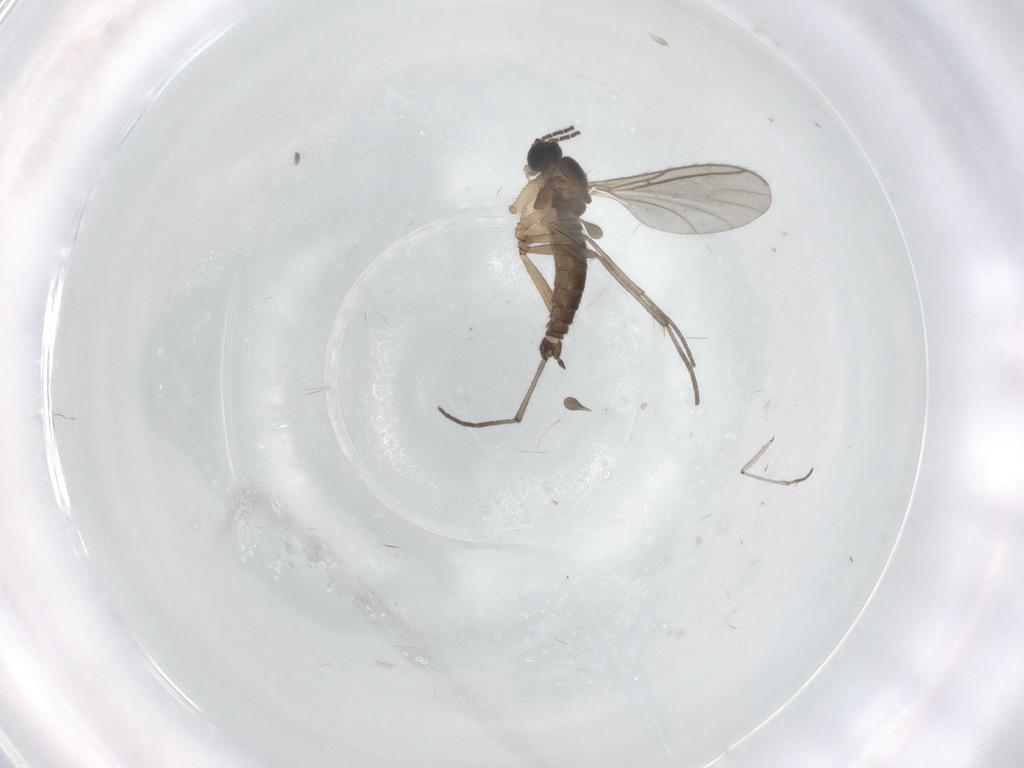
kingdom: Animalia
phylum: Arthropoda
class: Insecta
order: Diptera
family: Sciaridae
